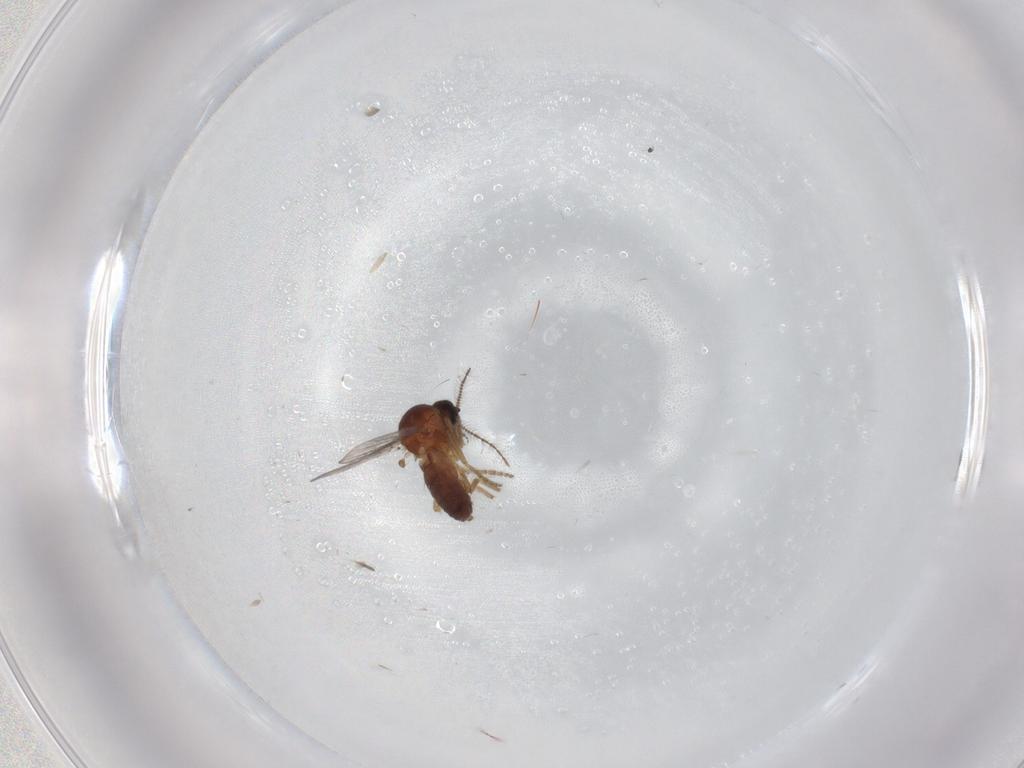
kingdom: Animalia
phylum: Arthropoda
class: Insecta
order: Diptera
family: Ceratopogonidae
